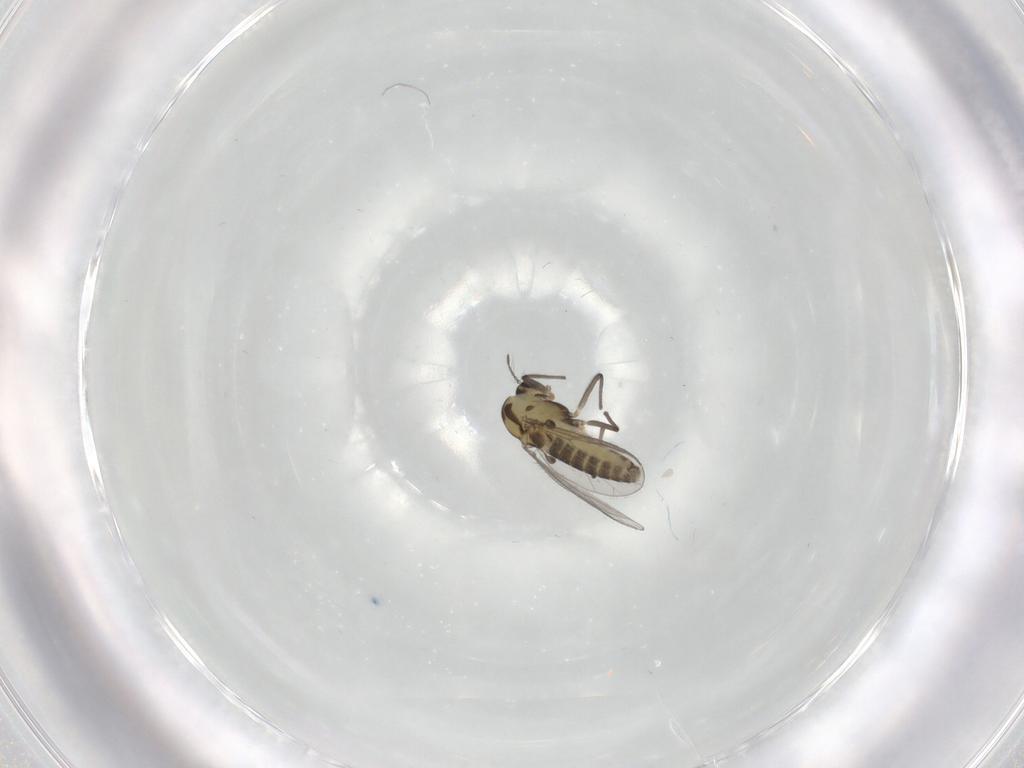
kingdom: Animalia
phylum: Arthropoda
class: Insecta
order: Diptera
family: Chironomidae
